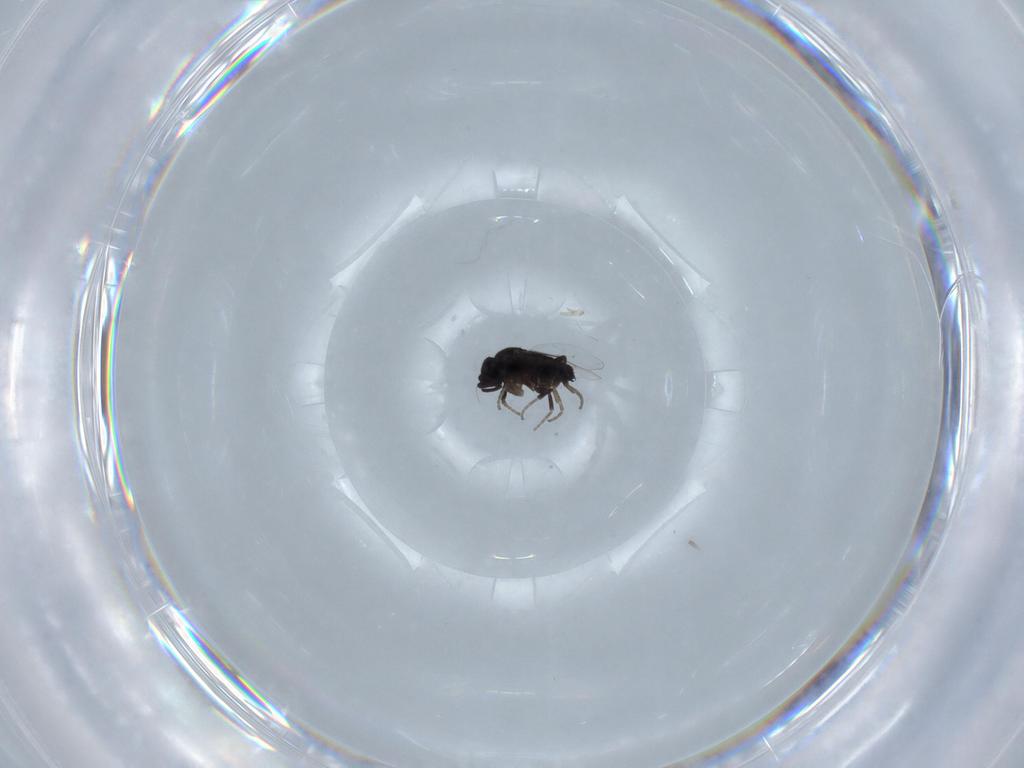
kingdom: Animalia
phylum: Arthropoda
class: Insecta
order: Diptera
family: Phoridae
